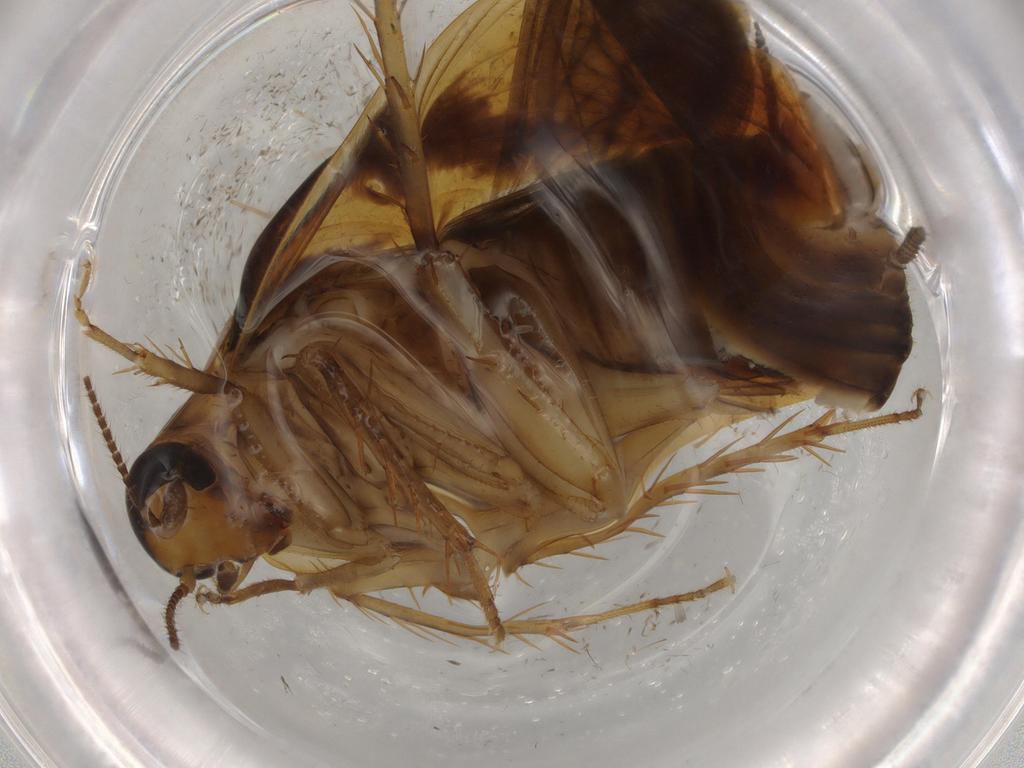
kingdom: Animalia
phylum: Arthropoda
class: Insecta
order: Blattodea
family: Ectobiidae
